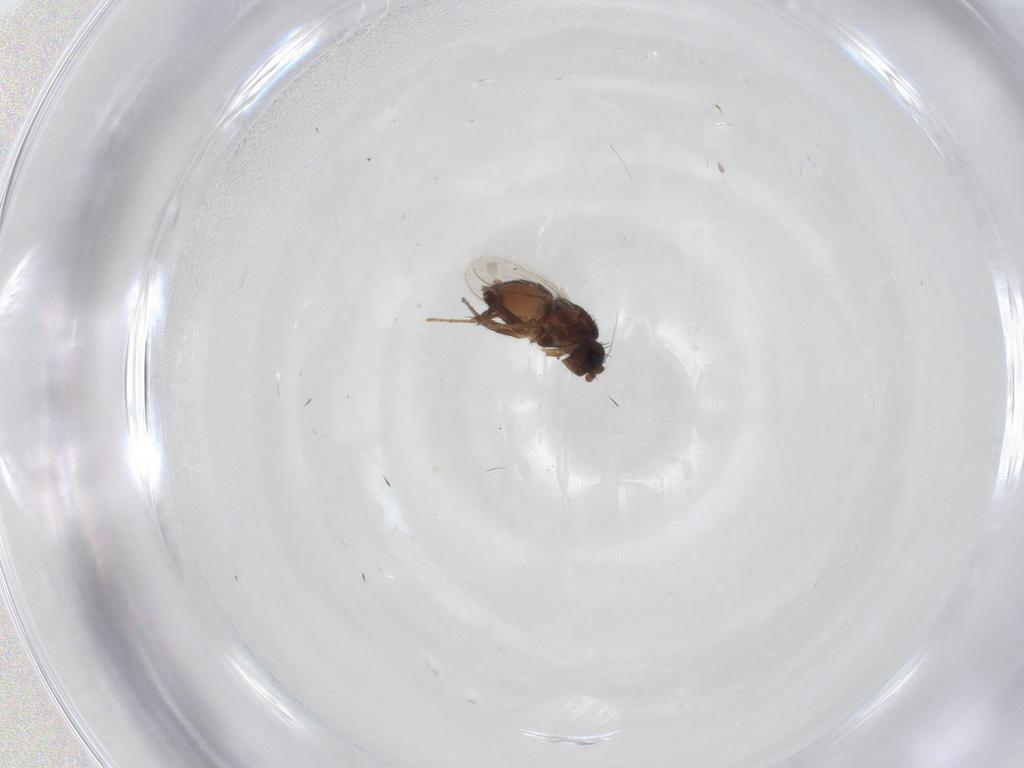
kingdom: Animalia
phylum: Arthropoda
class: Insecta
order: Diptera
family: Sphaeroceridae
